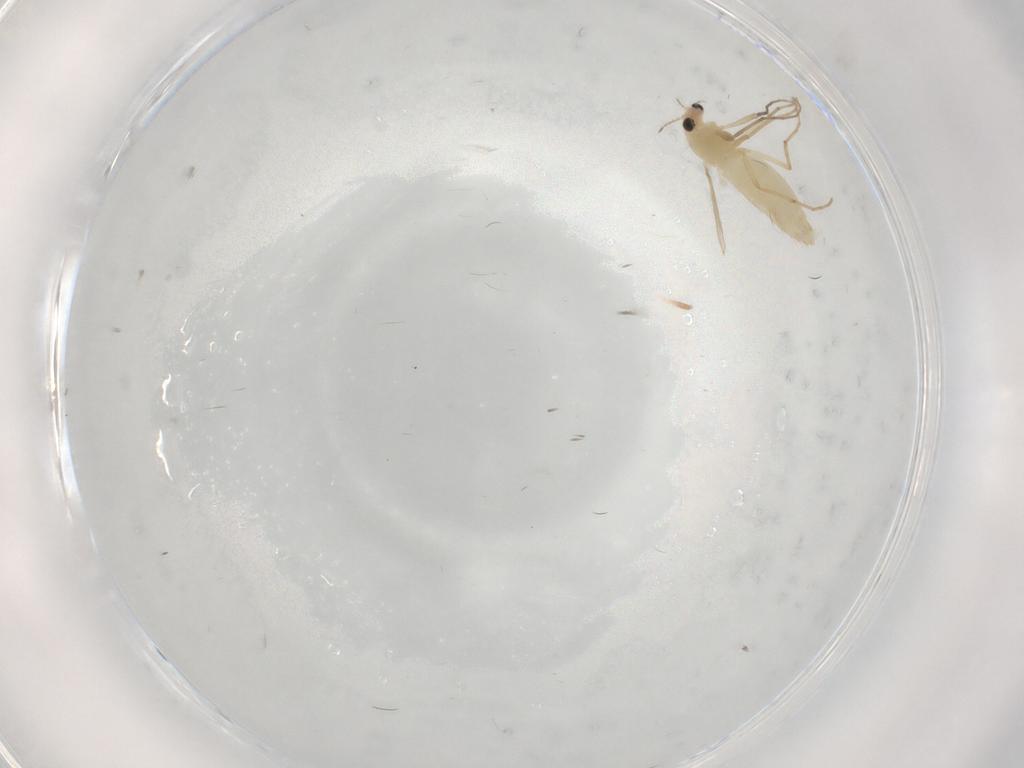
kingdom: Animalia
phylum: Arthropoda
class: Insecta
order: Diptera
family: Chironomidae
